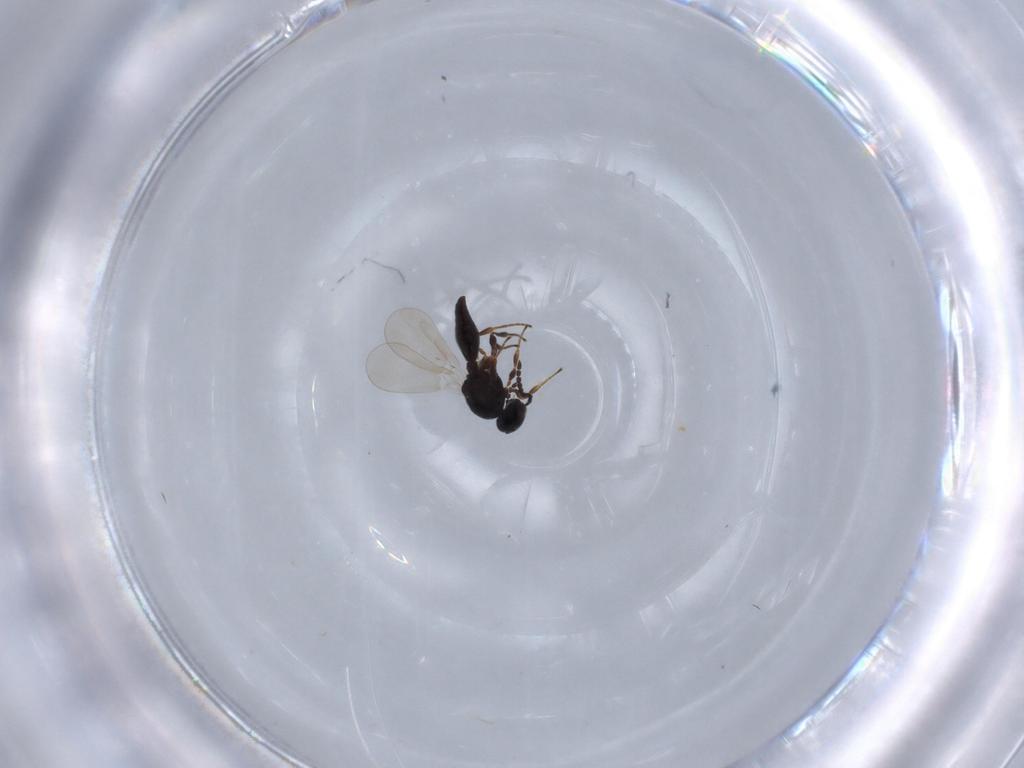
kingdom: Animalia
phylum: Arthropoda
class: Insecta
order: Hymenoptera
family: Platygastridae
